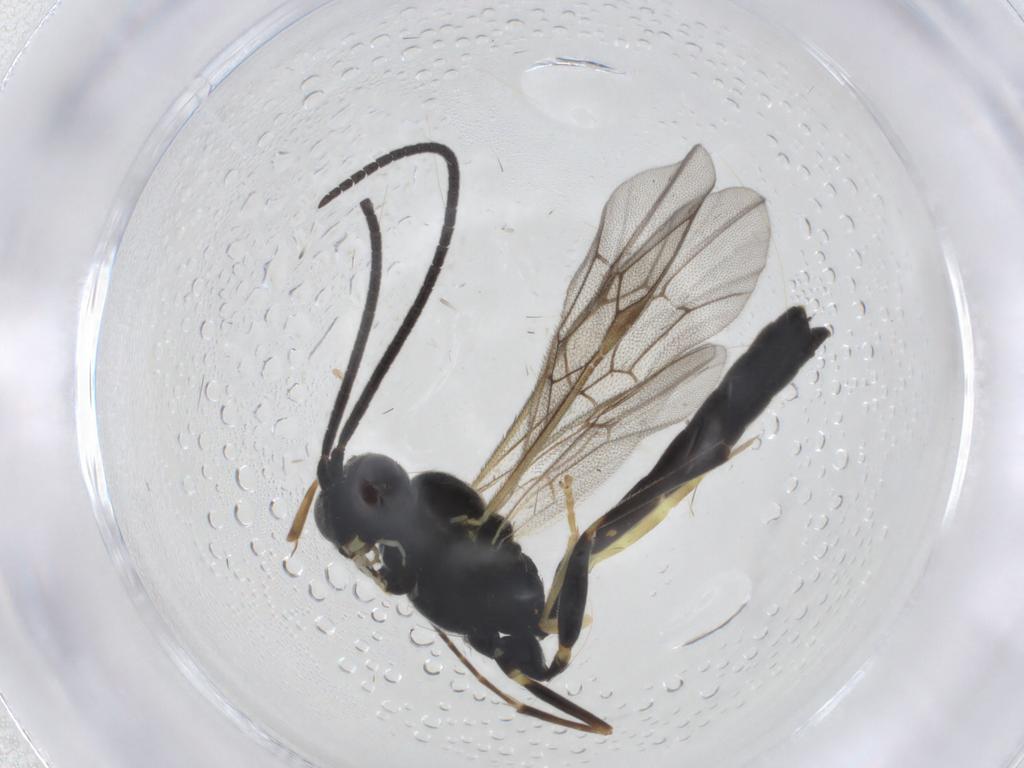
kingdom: Animalia
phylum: Arthropoda
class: Insecta
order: Hymenoptera
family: Ichneumonidae
